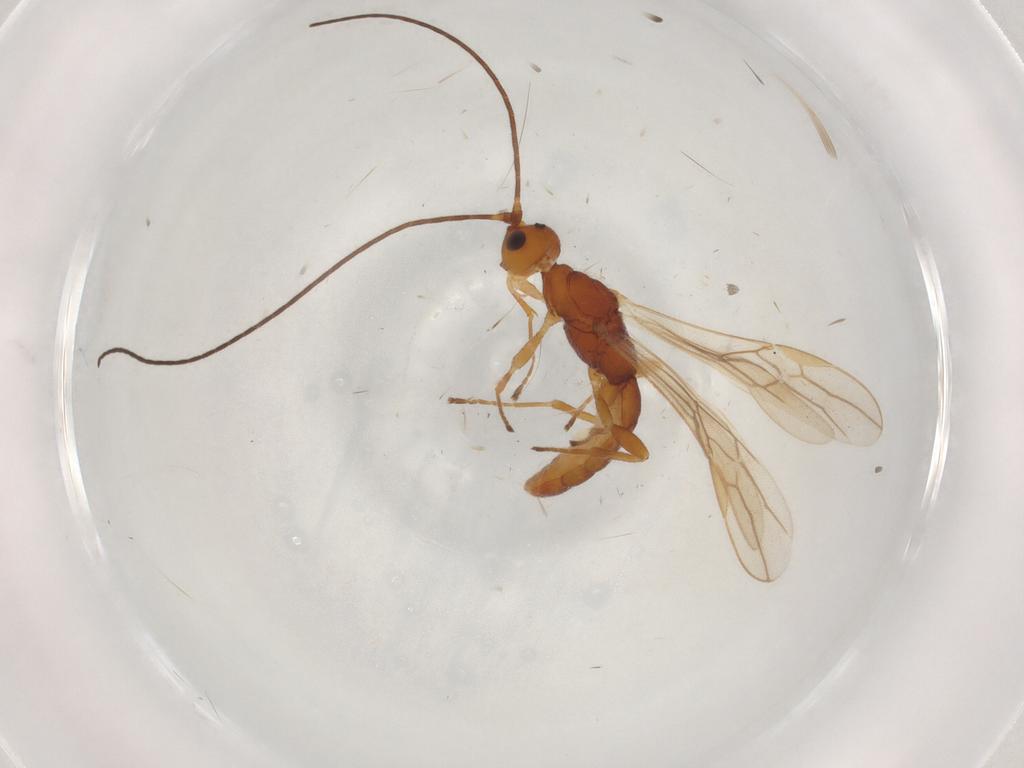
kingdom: Animalia
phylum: Arthropoda
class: Insecta
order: Hymenoptera
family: Braconidae
